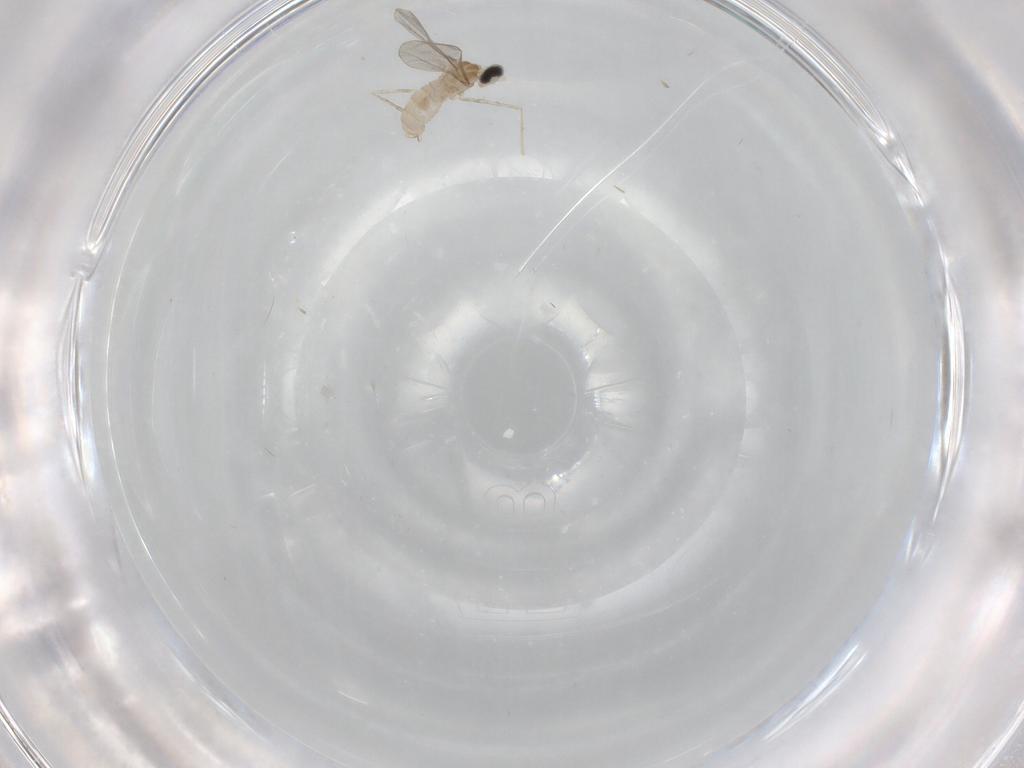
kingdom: Animalia
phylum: Arthropoda
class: Insecta
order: Diptera
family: Cecidomyiidae
